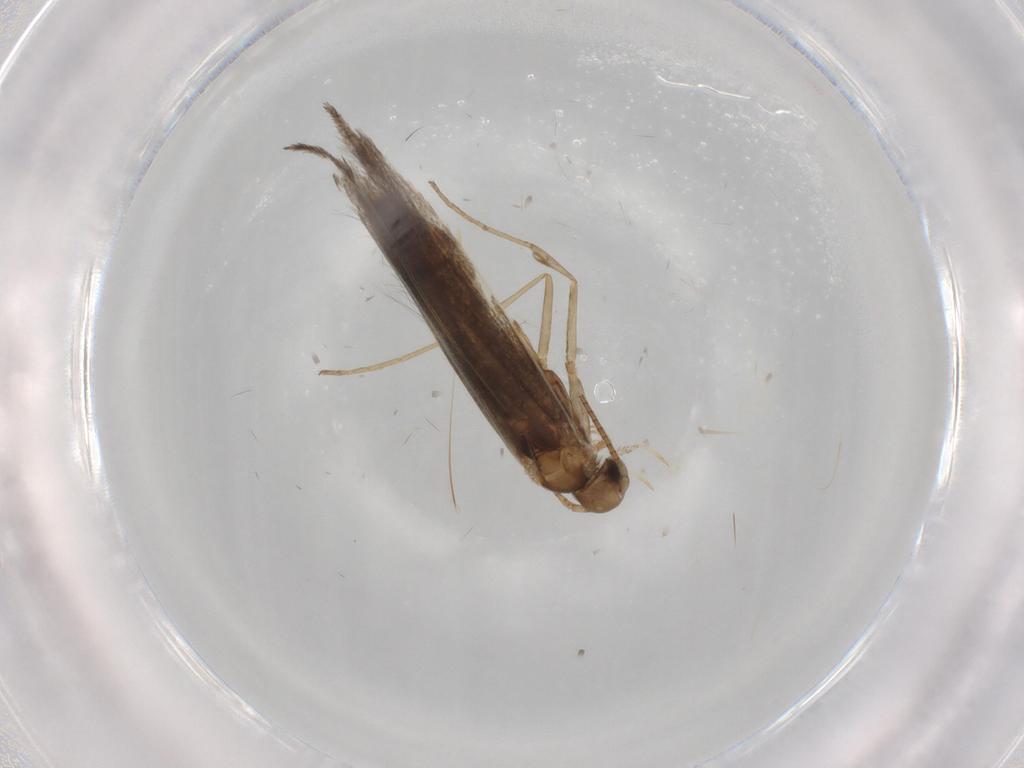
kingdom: Animalia
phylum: Arthropoda
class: Insecta
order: Lepidoptera
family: Gracillariidae
